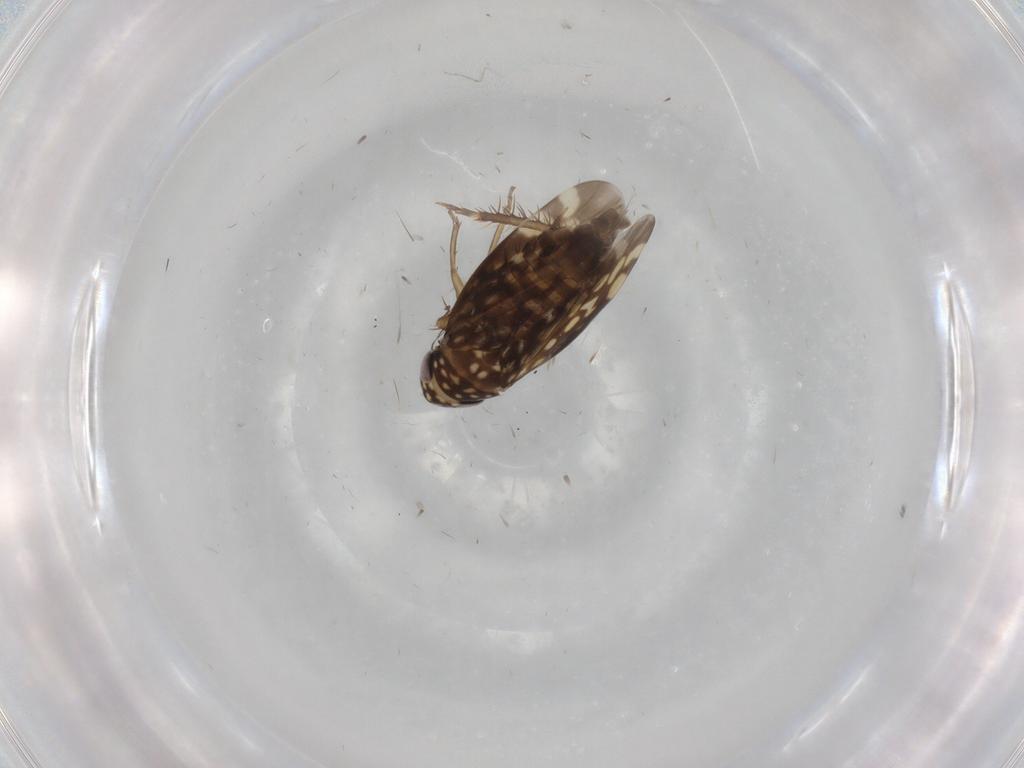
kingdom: Animalia
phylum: Arthropoda
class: Insecta
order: Hemiptera
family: Cicadellidae
